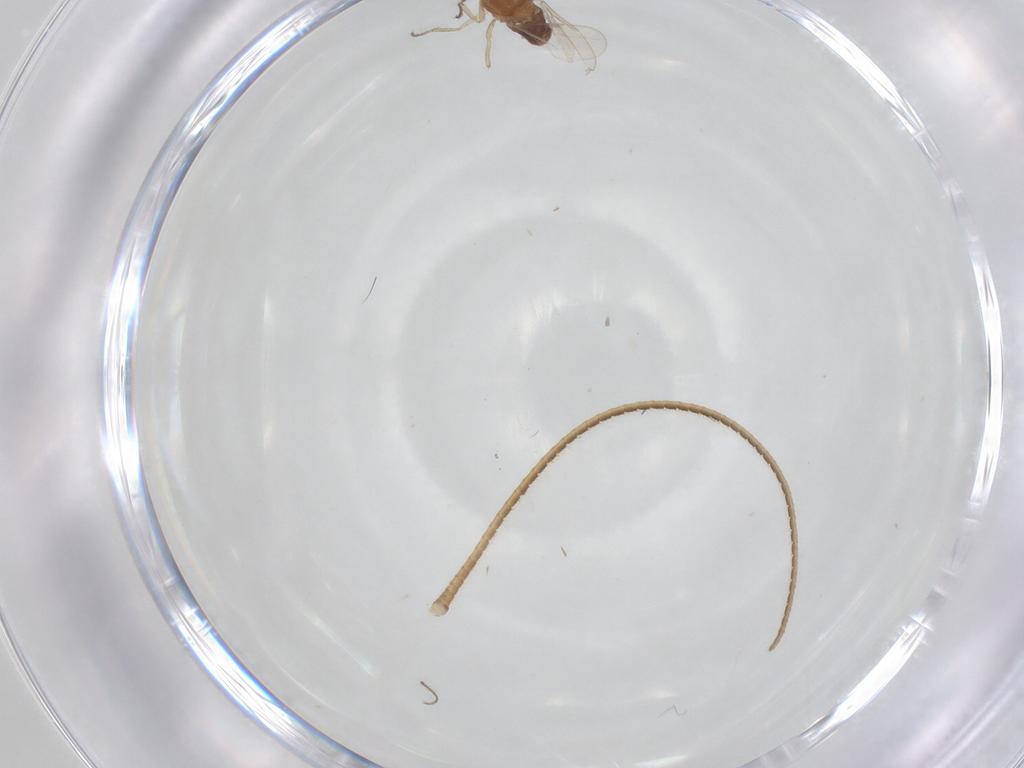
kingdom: Animalia
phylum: Arthropoda
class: Insecta
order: Diptera
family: Ceratopogonidae
